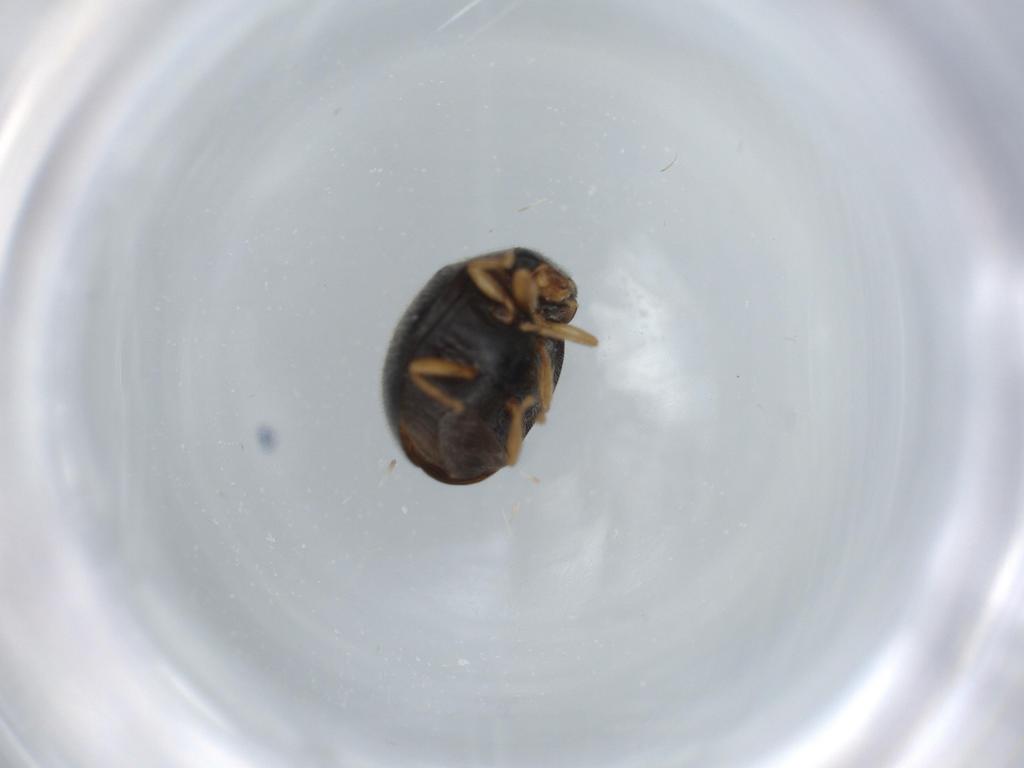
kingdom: Animalia
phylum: Arthropoda
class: Insecta
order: Coleoptera
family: Coccinellidae
